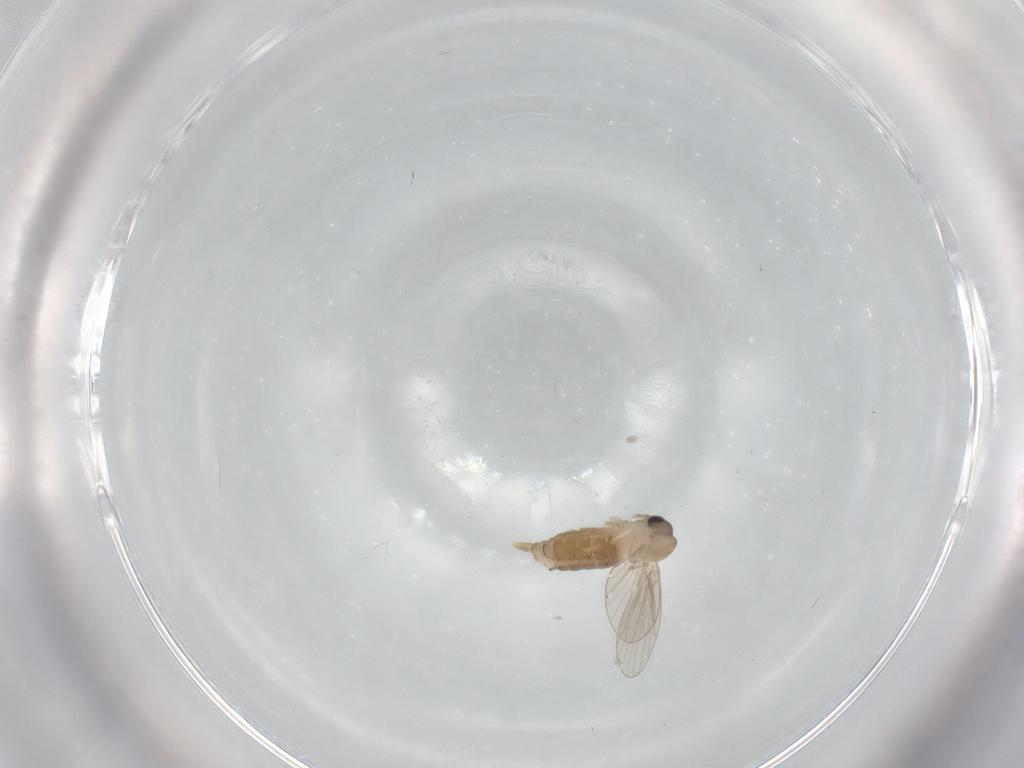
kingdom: Animalia
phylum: Arthropoda
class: Insecta
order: Diptera
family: Psychodidae
